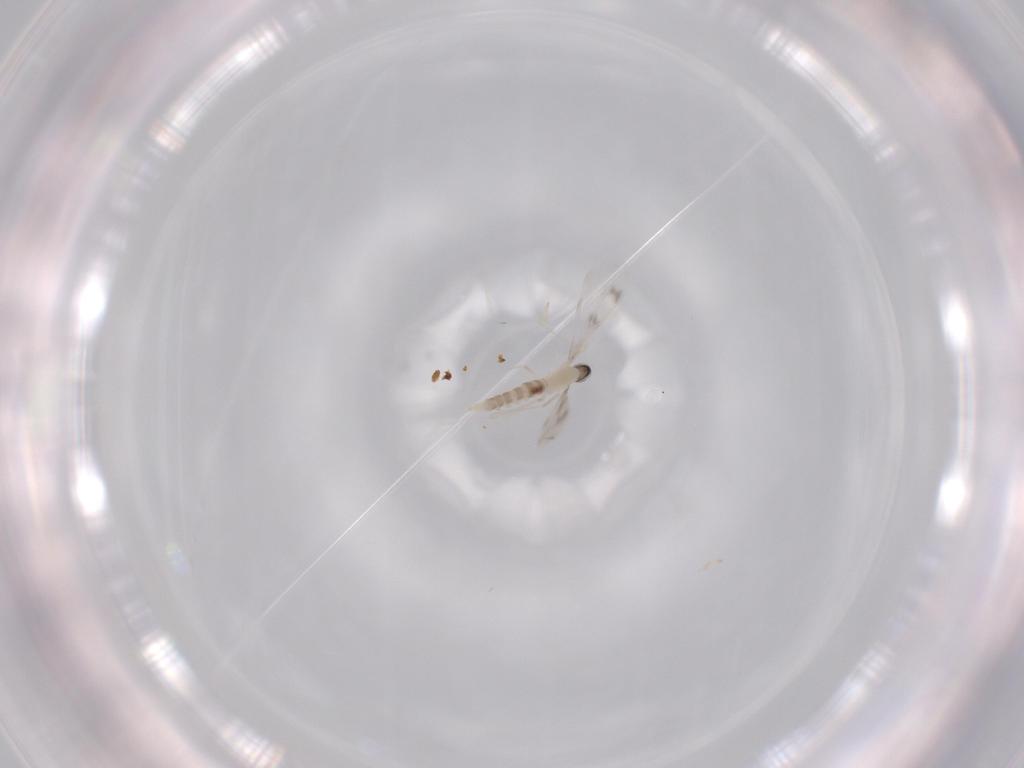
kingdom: Animalia
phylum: Arthropoda
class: Insecta
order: Diptera
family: Cecidomyiidae
